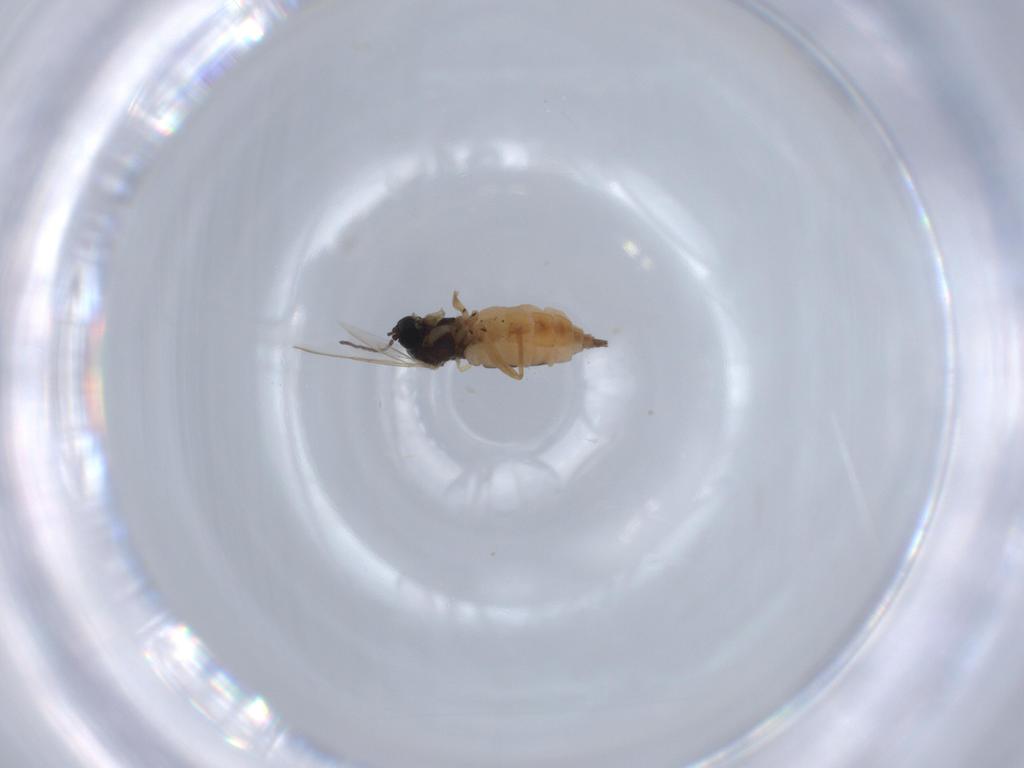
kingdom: Animalia
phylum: Arthropoda
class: Insecta
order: Diptera
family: Sciaridae
